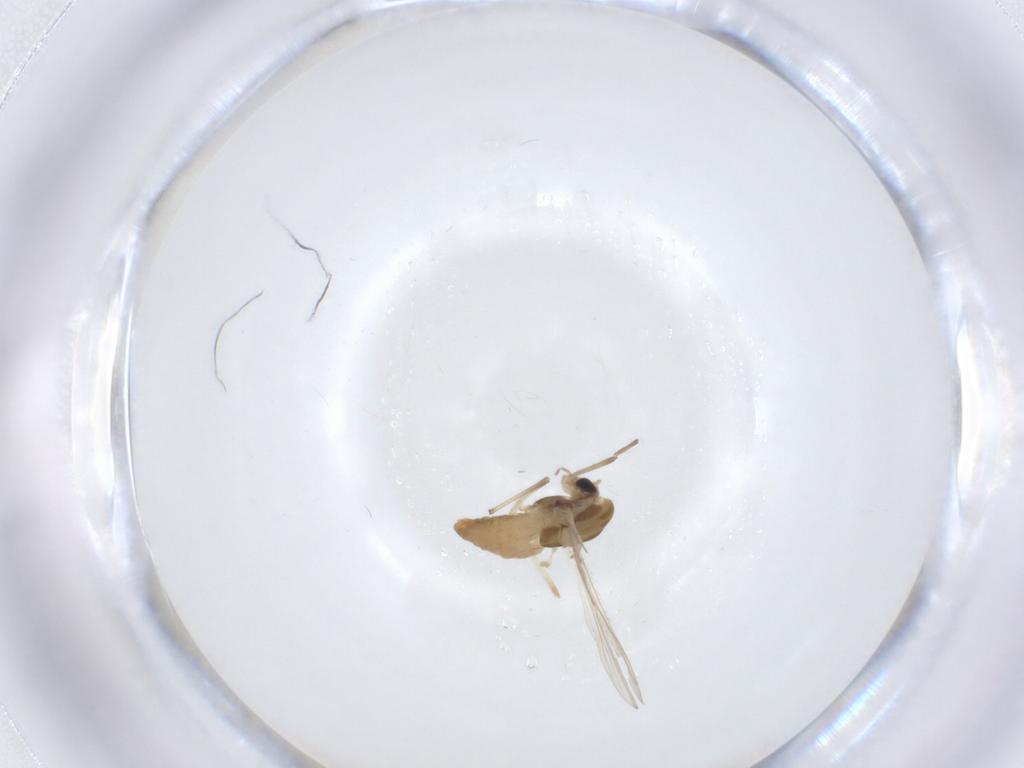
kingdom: Animalia
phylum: Arthropoda
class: Insecta
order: Diptera
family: Chironomidae
